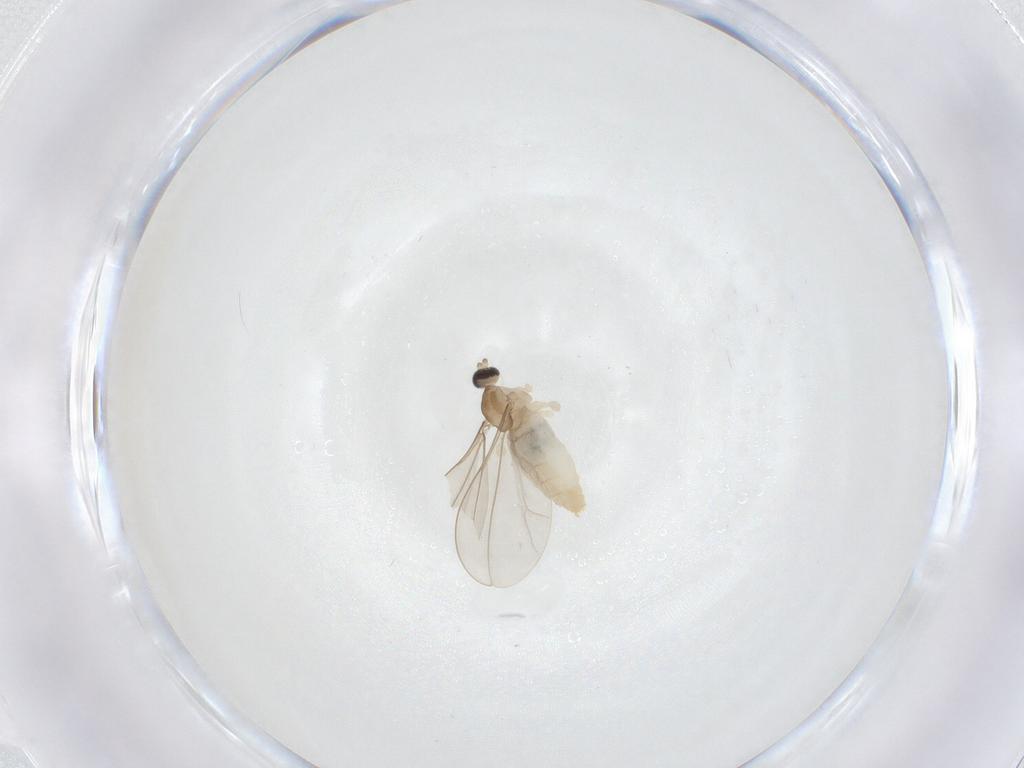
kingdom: Animalia
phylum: Arthropoda
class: Insecta
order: Diptera
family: Cecidomyiidae
